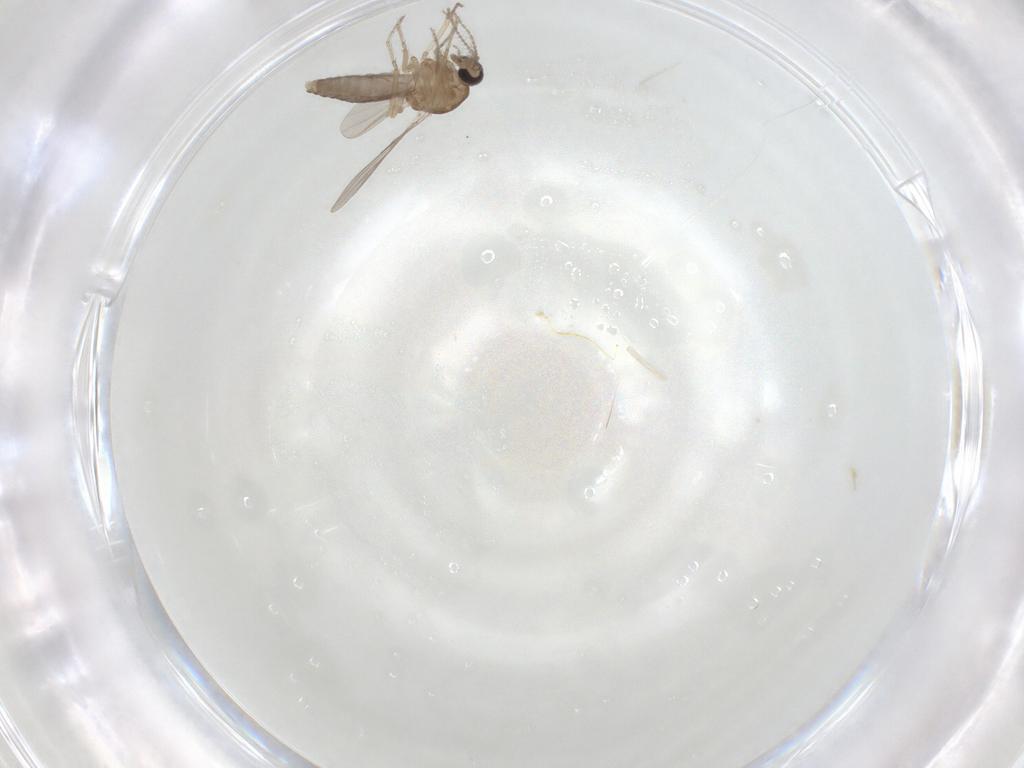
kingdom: Animalia
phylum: Arthropoda
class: Insecta
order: Diptera
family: Ceratopogonidae
